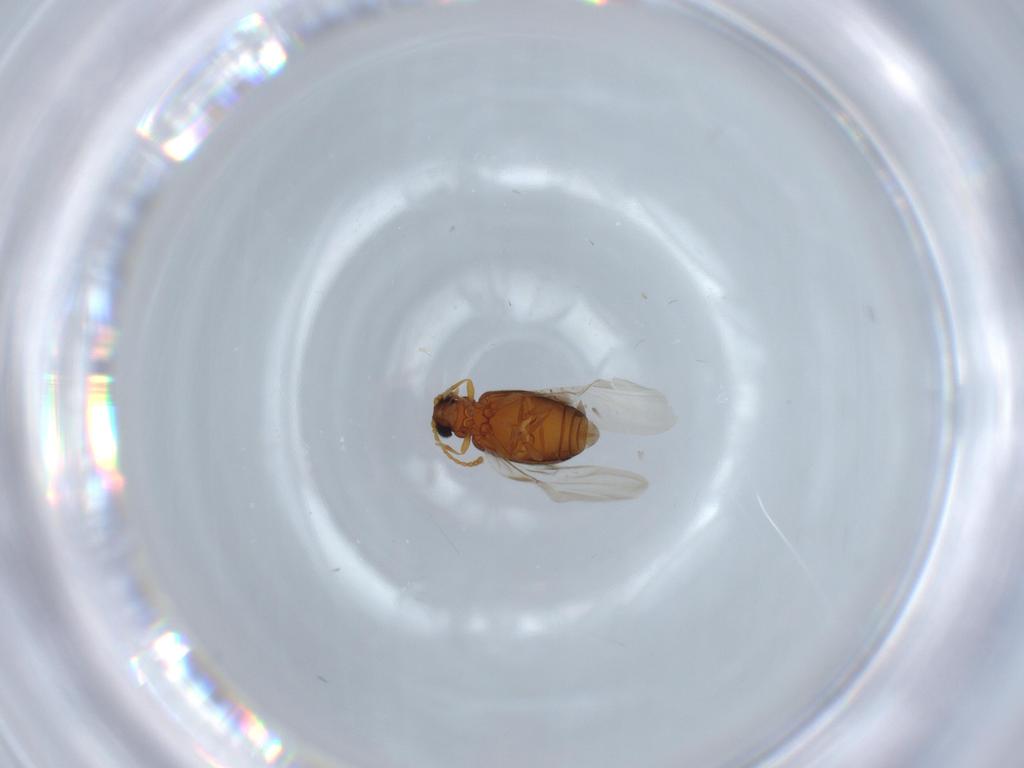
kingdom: Animalia
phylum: Arthropoda
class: Insecta
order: Coleoptera
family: Aderidae
